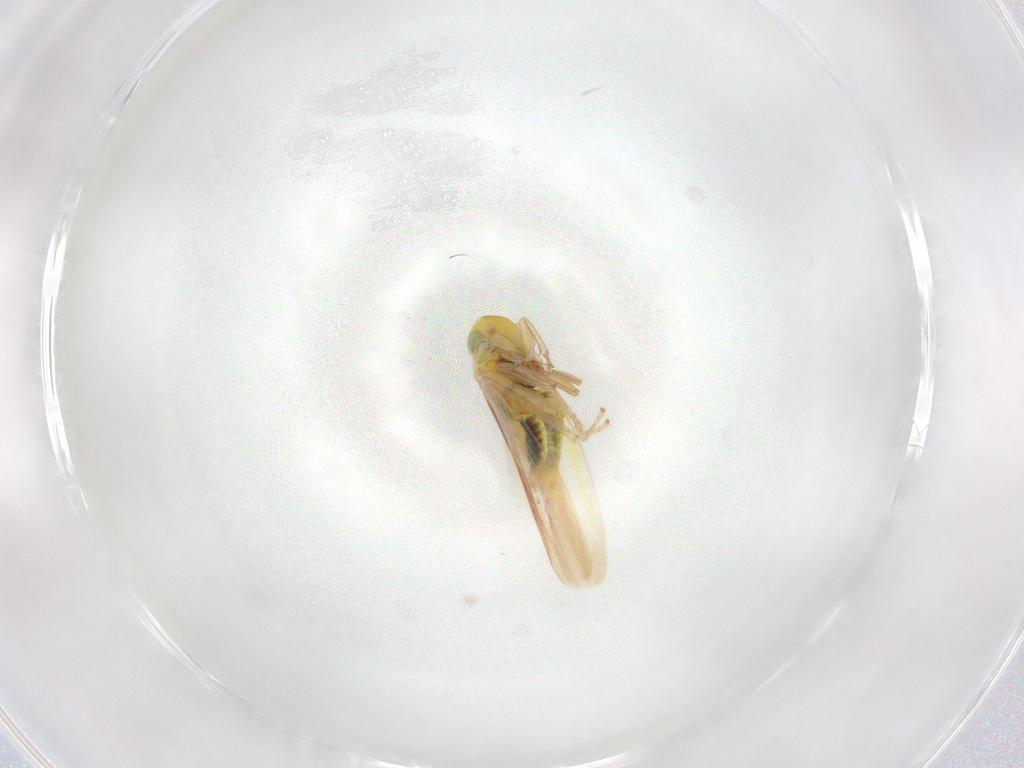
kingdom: Animalia
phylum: Arthropoda
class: Insecta
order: Hemiptera
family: Cicadellidae
